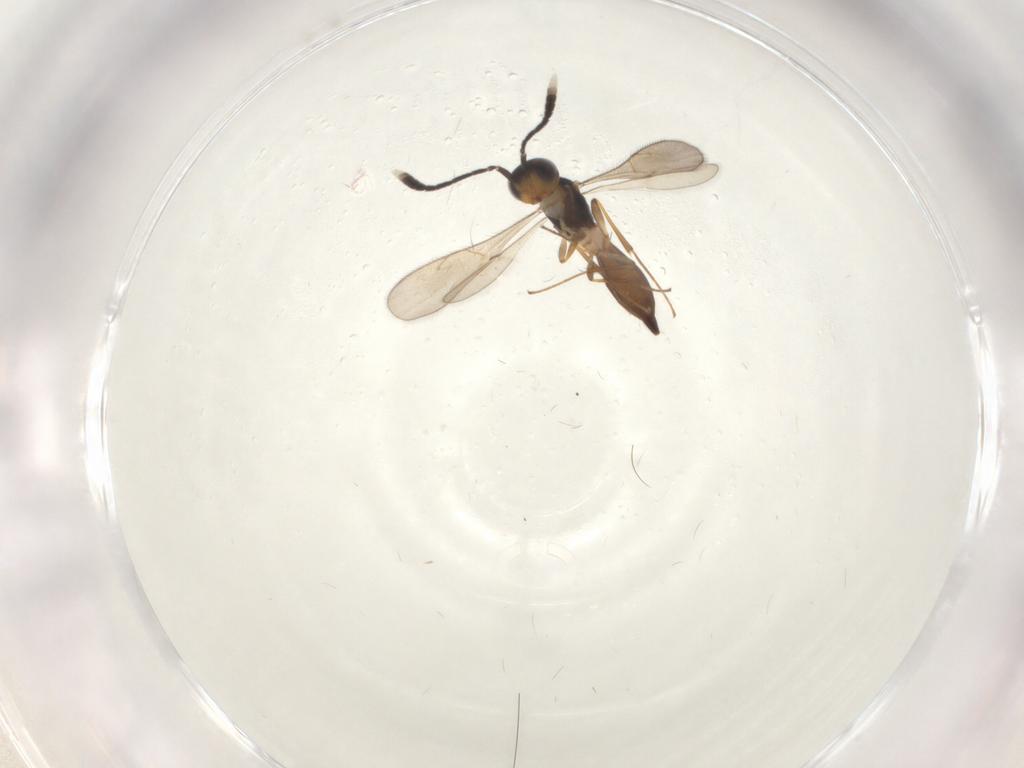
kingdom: Animalia
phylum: Arthropoda
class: Insecta
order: Hymenoptera
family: Scelionidae
